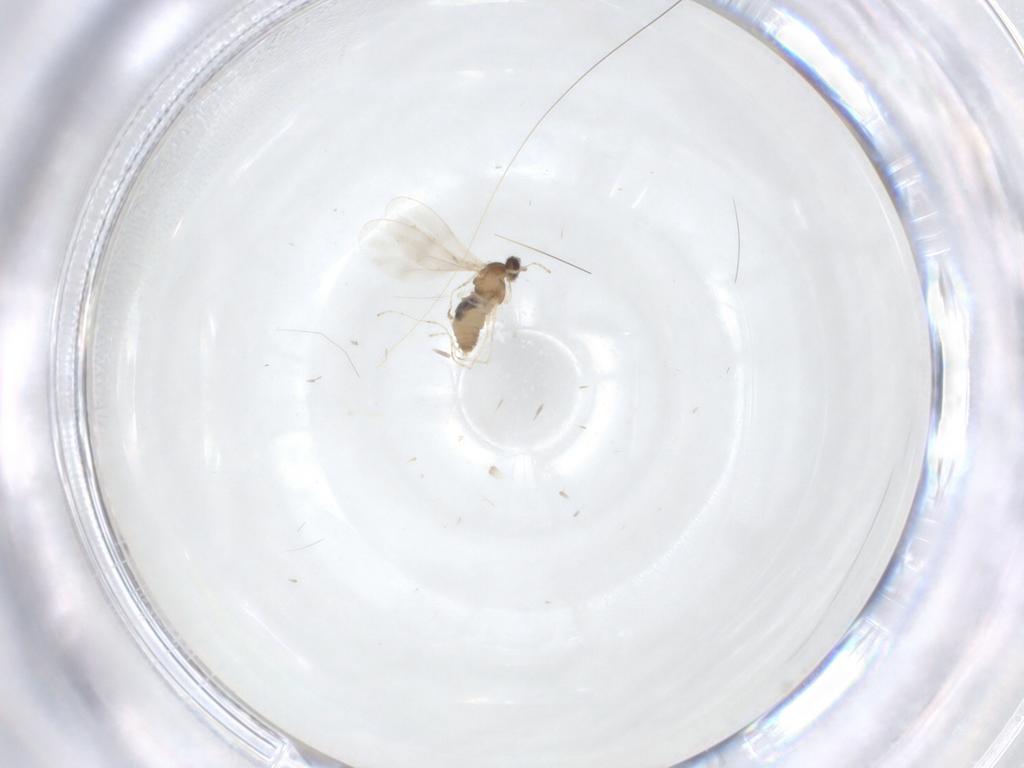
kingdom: Animalia
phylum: Arthropoda
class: Insecta
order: Diptera
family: Cecidomyiidae
